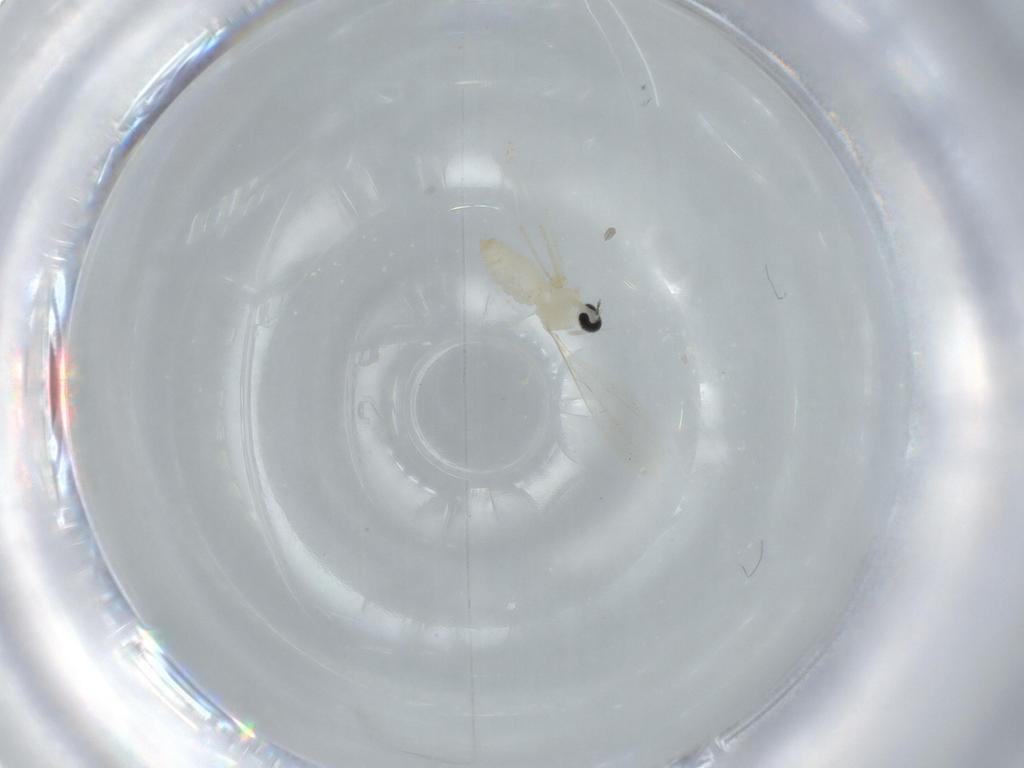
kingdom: Animalia
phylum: Arthropoda
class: Insecta
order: Diptera
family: Cecidomyiidae
